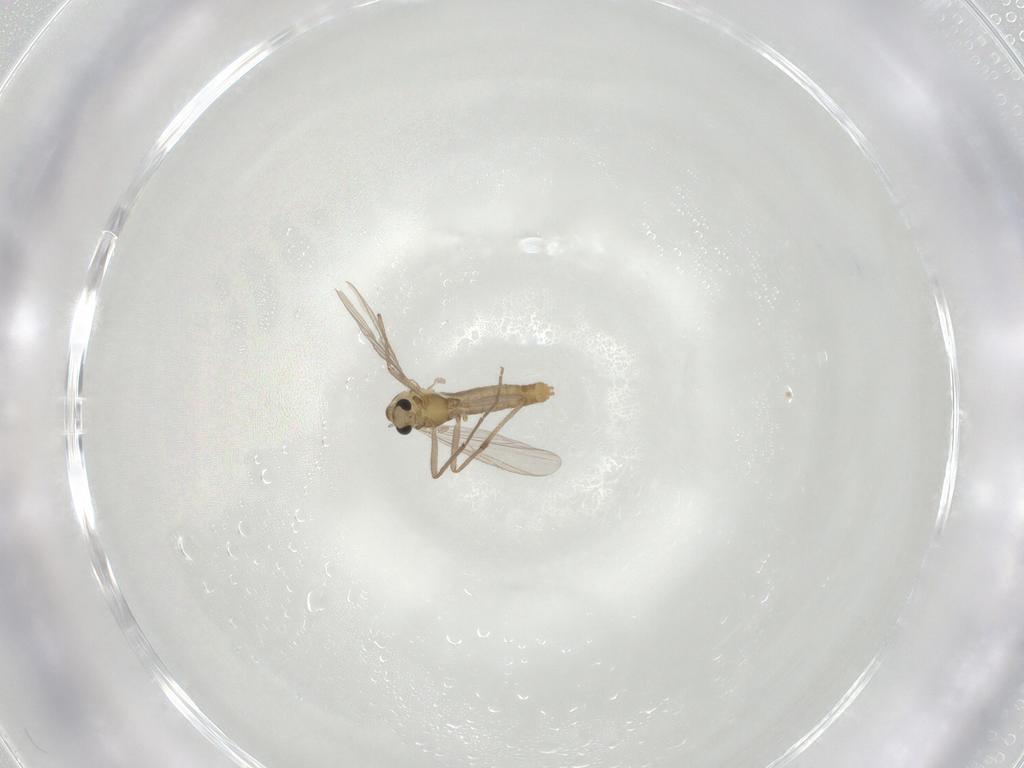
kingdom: Animalia
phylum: Arthropoda
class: Insecta
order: Diptera
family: Chironomidae
